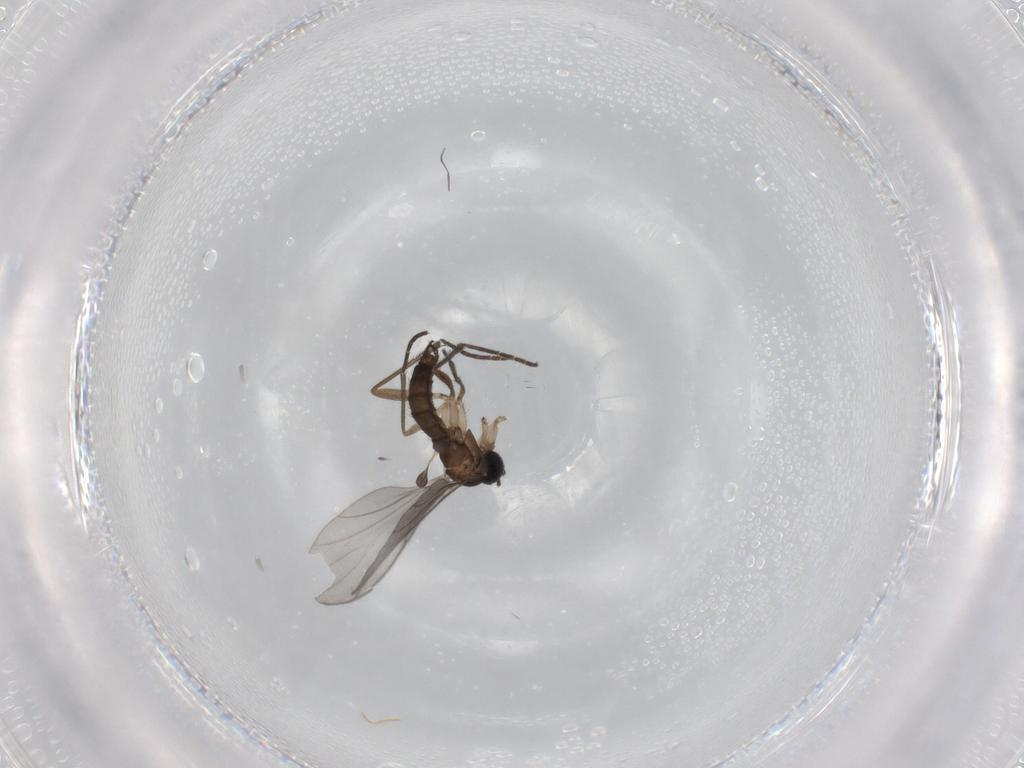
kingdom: Animalia
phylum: Arthropoda
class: Insecta
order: Diptera
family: Sciaridae
